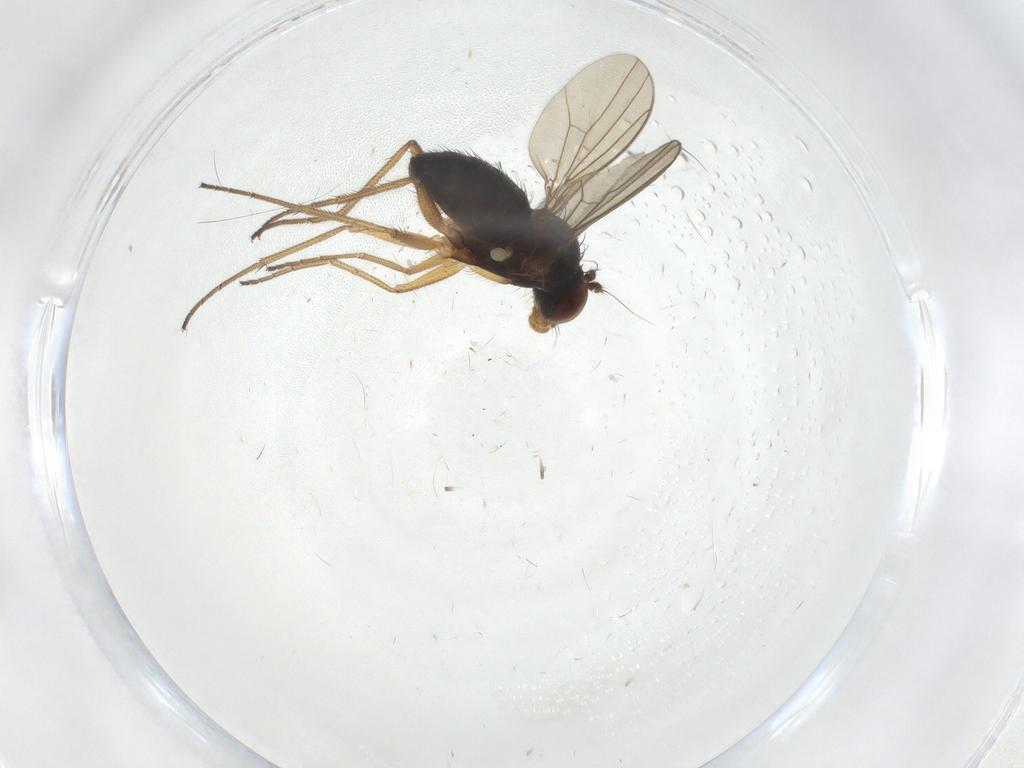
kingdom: Animalia
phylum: Arthropoda
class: Insecta
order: Diptera
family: Dolichopodidae
